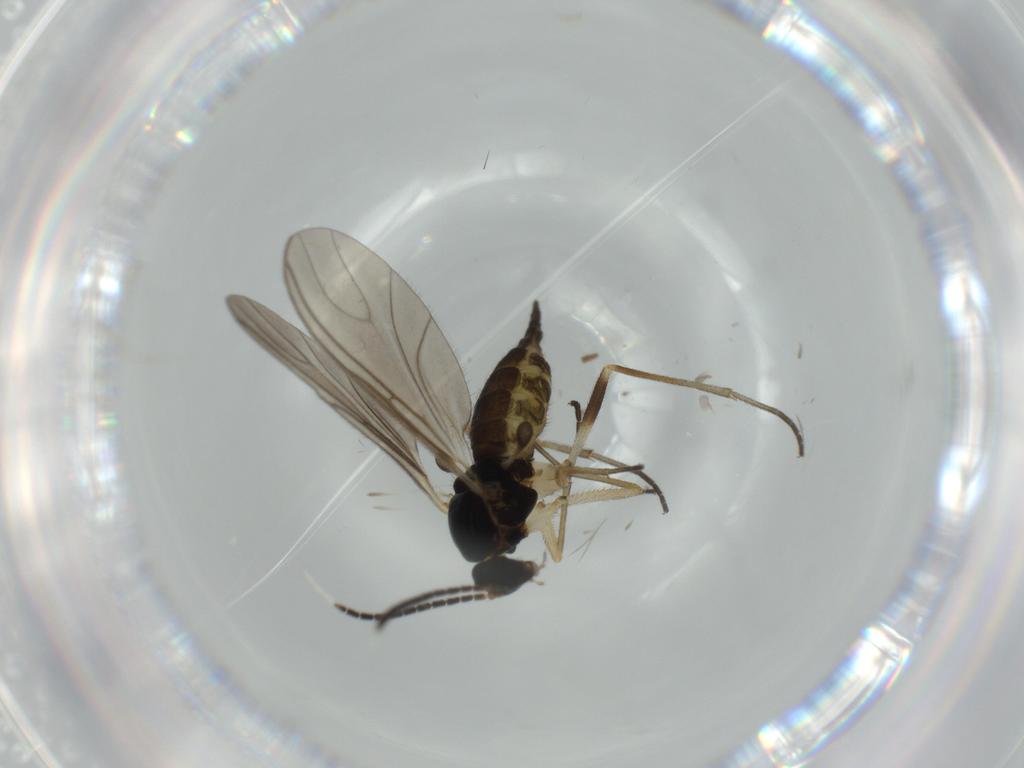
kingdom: Animalia
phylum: Arthropoda
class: Insecta
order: Diptera
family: Sciaridae
